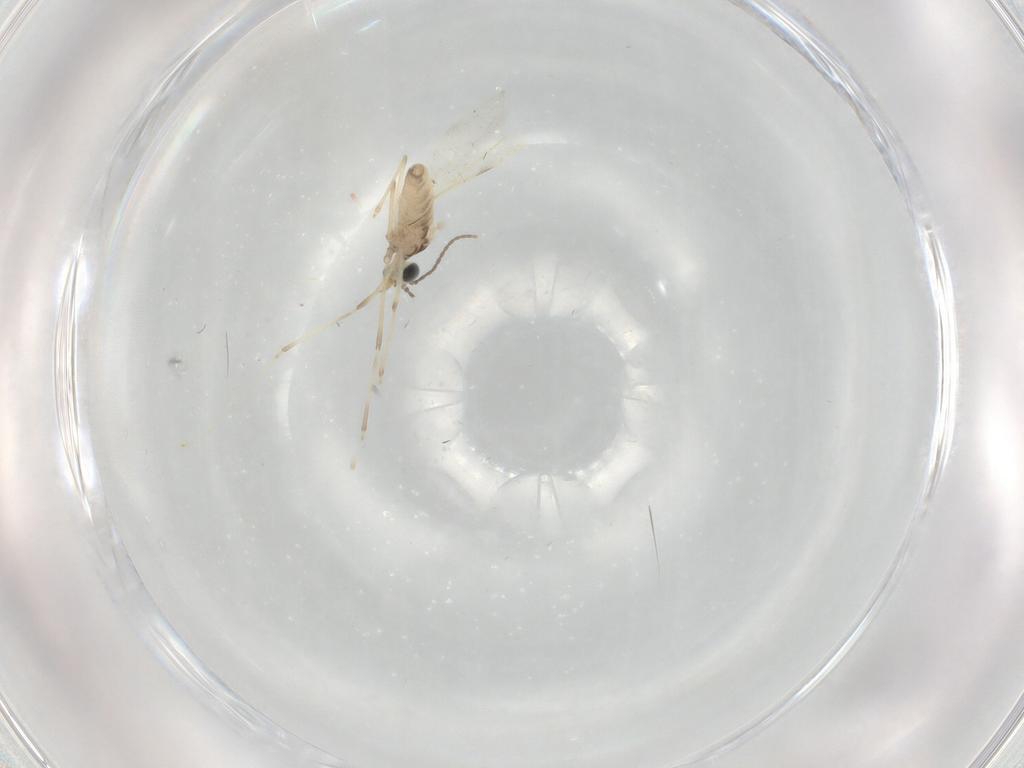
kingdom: Animalia
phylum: Arthropoda
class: Insecta
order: Diptera
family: Cecidomyiidae
